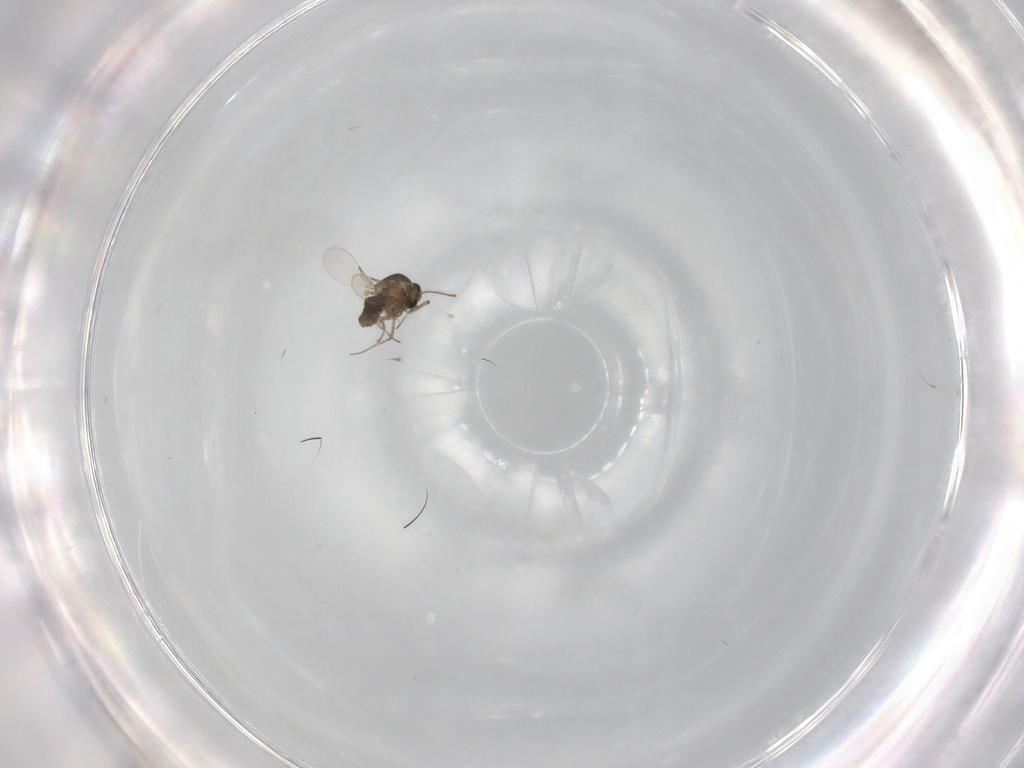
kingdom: Animalia
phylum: Arthropoda
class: Insecta
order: Diptera
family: Ceratopogonidae
